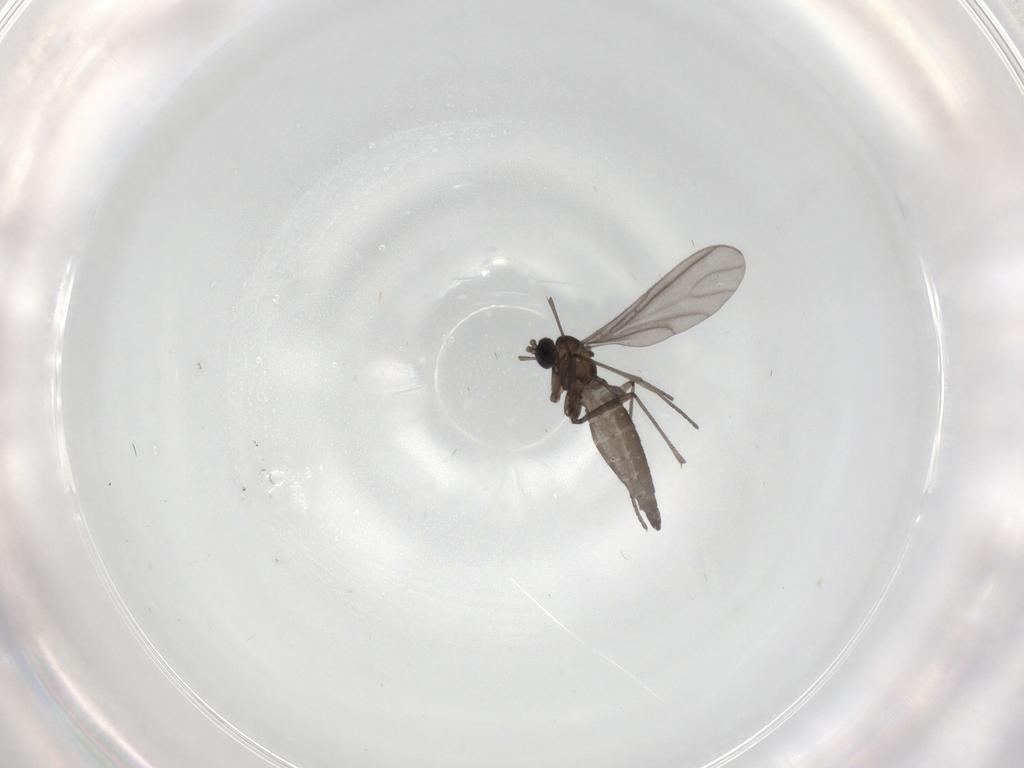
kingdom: Animalia
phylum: Arthropoda
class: Insecta
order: Diptera
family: Sciaridae
